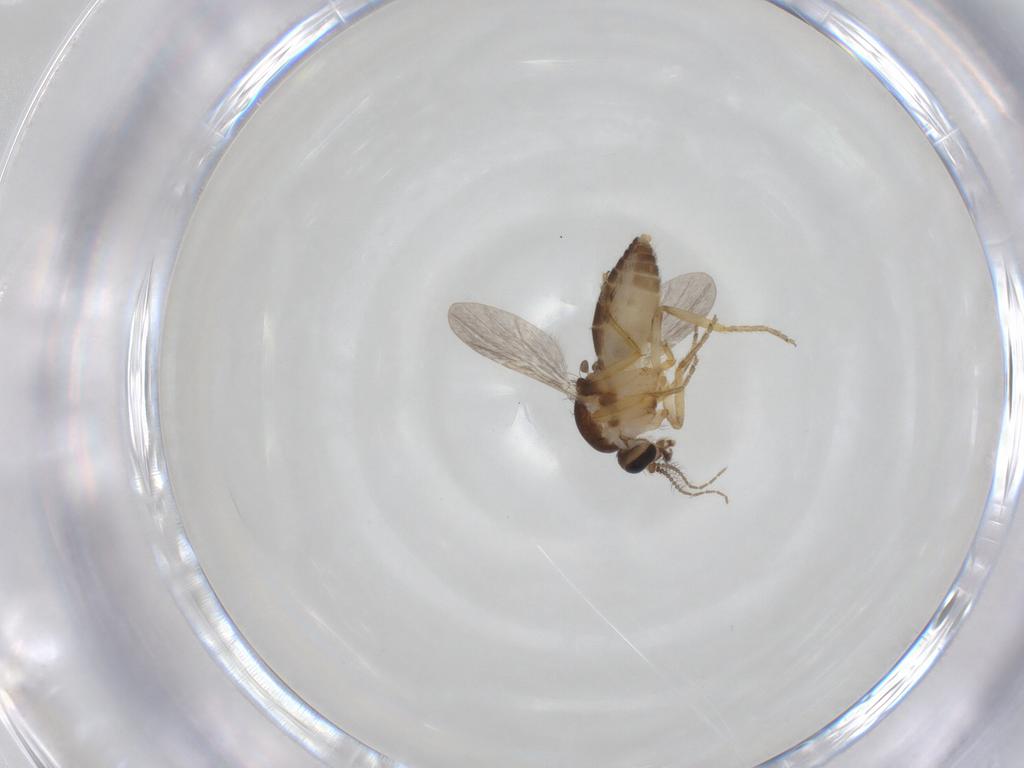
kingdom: Animalia
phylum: Arthropoda
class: Insecta
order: Diptera
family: Ceratopogonidae
